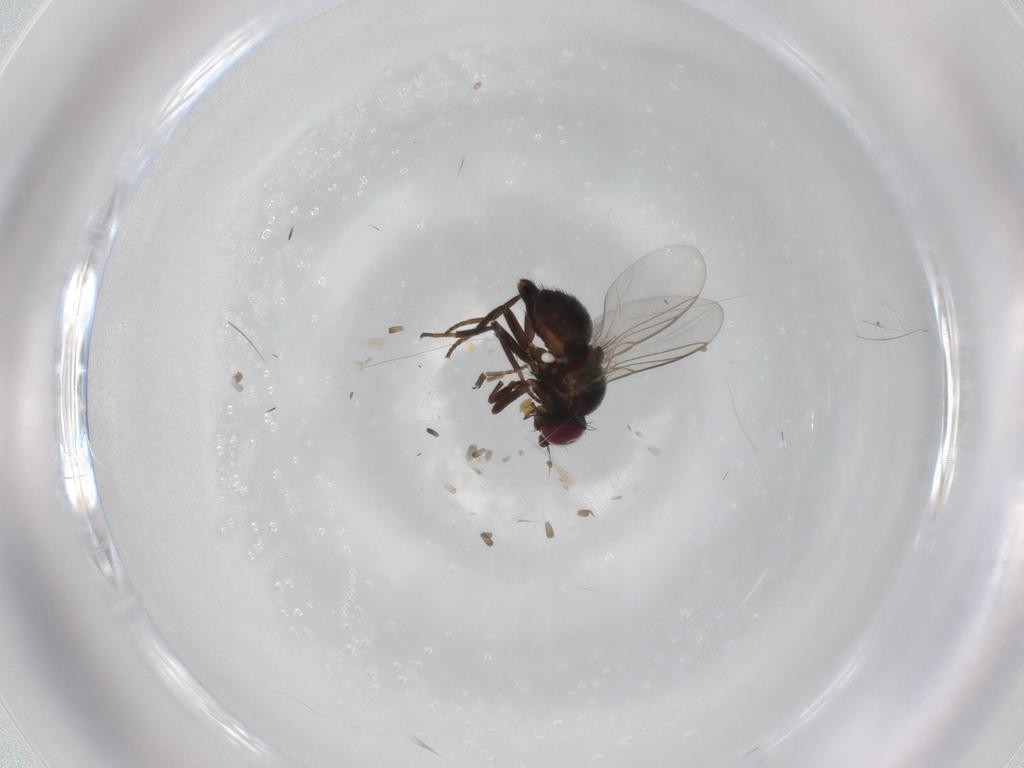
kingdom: Animalia
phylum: Arthropoda
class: Insecta
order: Diptera
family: Agromyzidae
